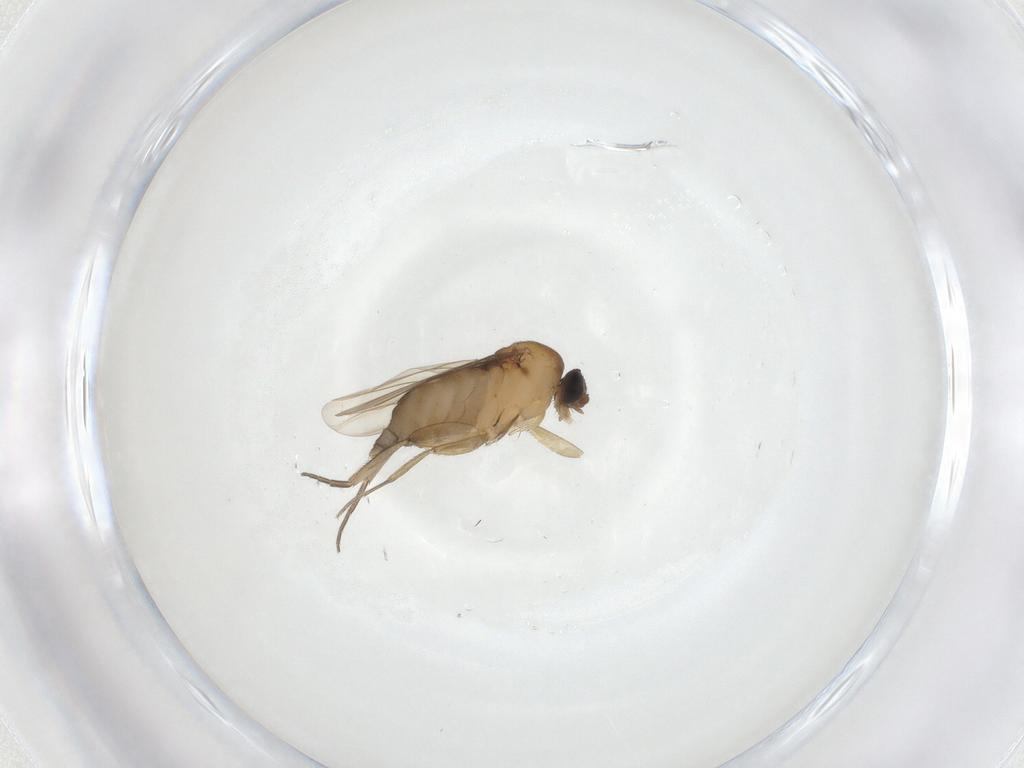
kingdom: Animalia
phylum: Arthropoda
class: Insecta
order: Diptera
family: Phoridae
